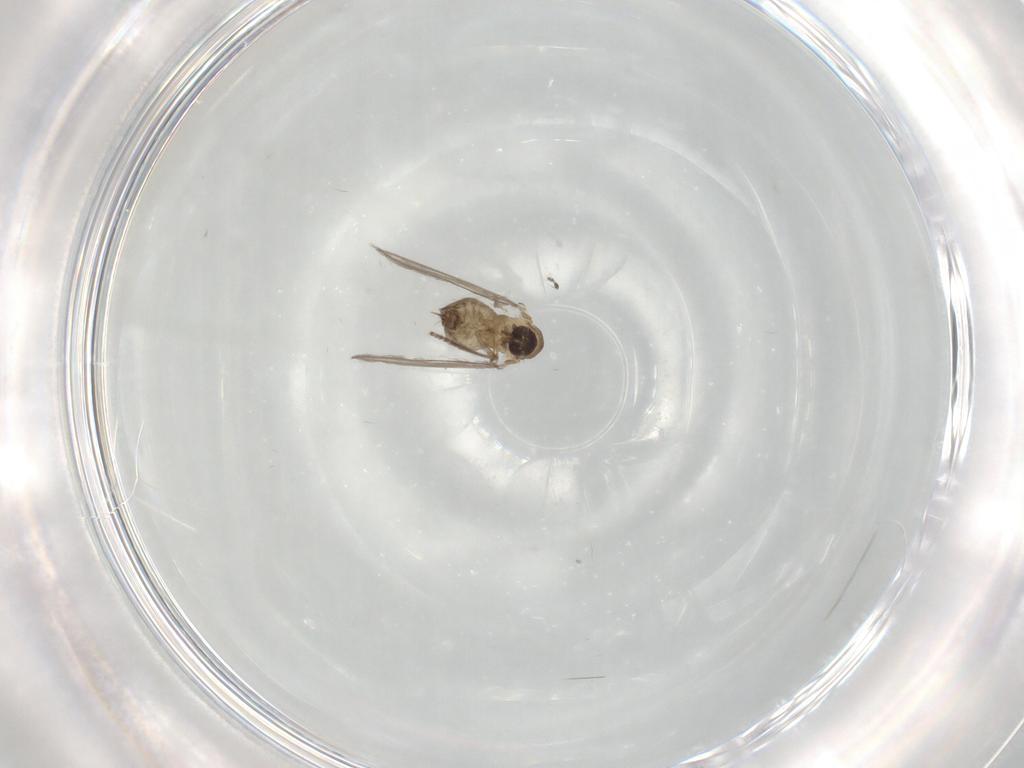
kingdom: Animalia
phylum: Arthropoda
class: Insecta
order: Diptera
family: Psychodidae
